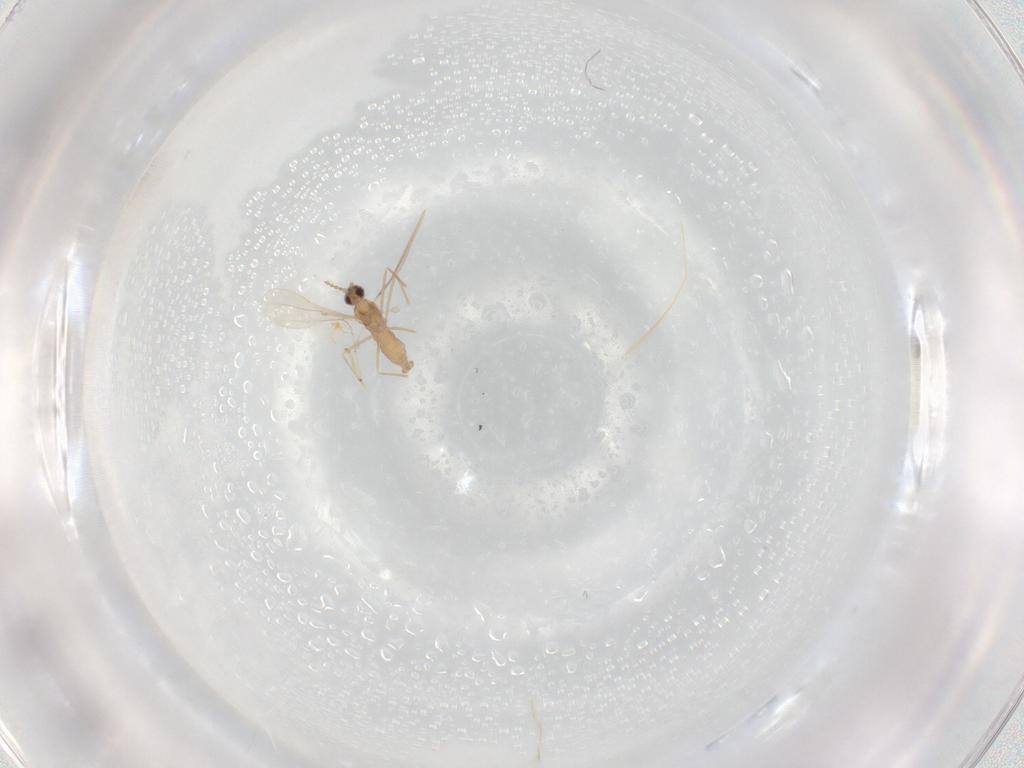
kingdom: Animalia
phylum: Arthropoda
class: Insecta
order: Diptera
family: Cecidomyiidae
